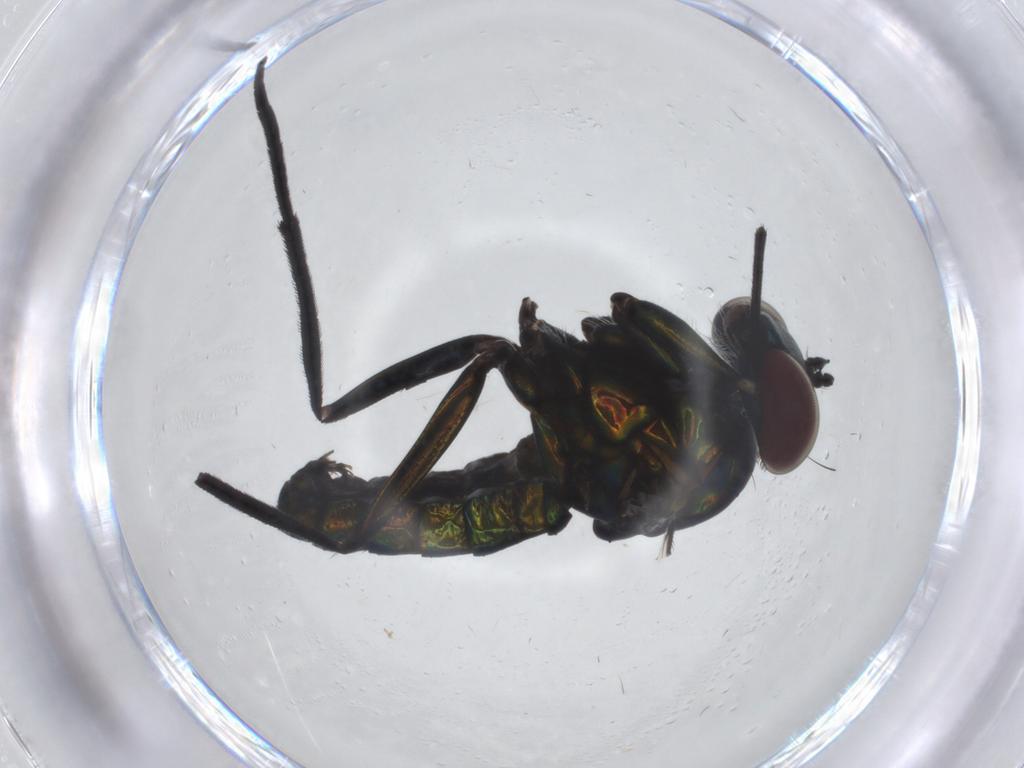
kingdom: Animalia
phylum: Arthropoda
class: Insecta
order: Diptera
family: Dolichopodidae
